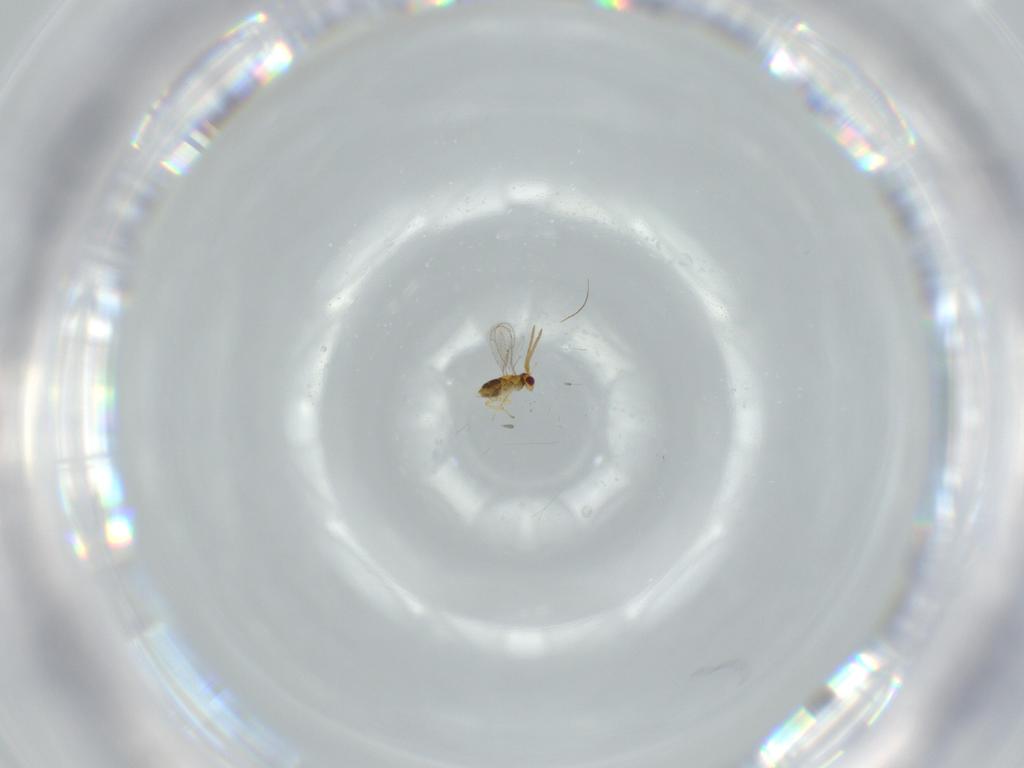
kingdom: Animalia
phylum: Arthropoda
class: Insecta
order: Hymenoptera
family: Aphelinidae
